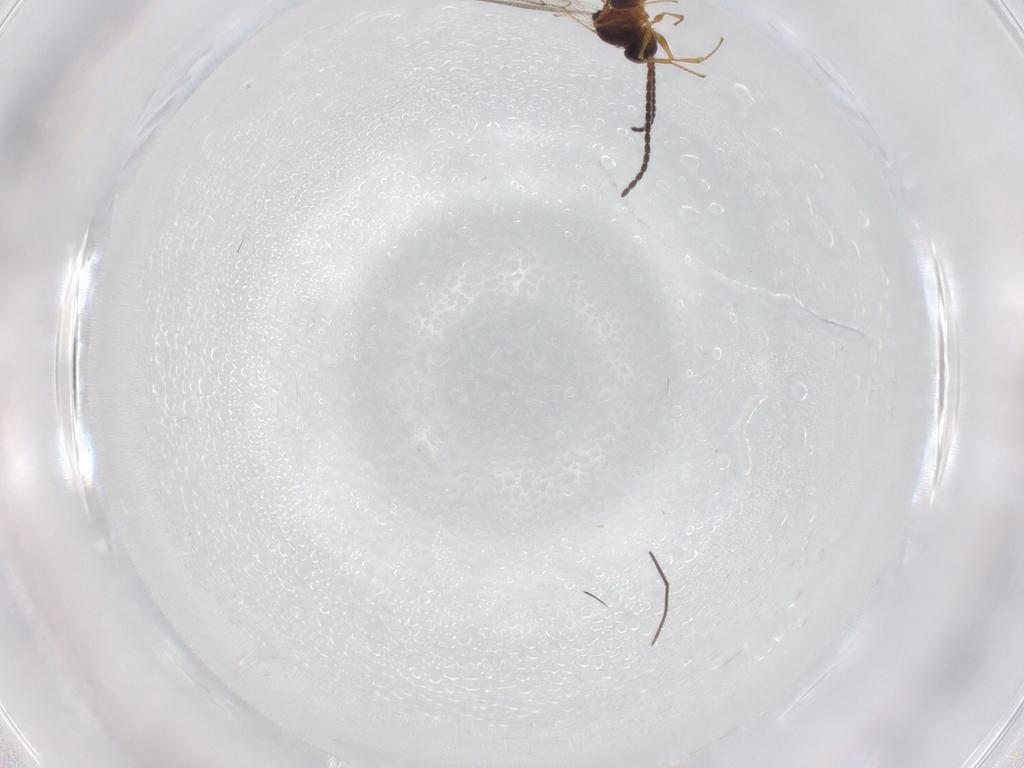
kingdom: Animalia
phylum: Arthropoda
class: Insecta
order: Hymenoptera
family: Figitidae
